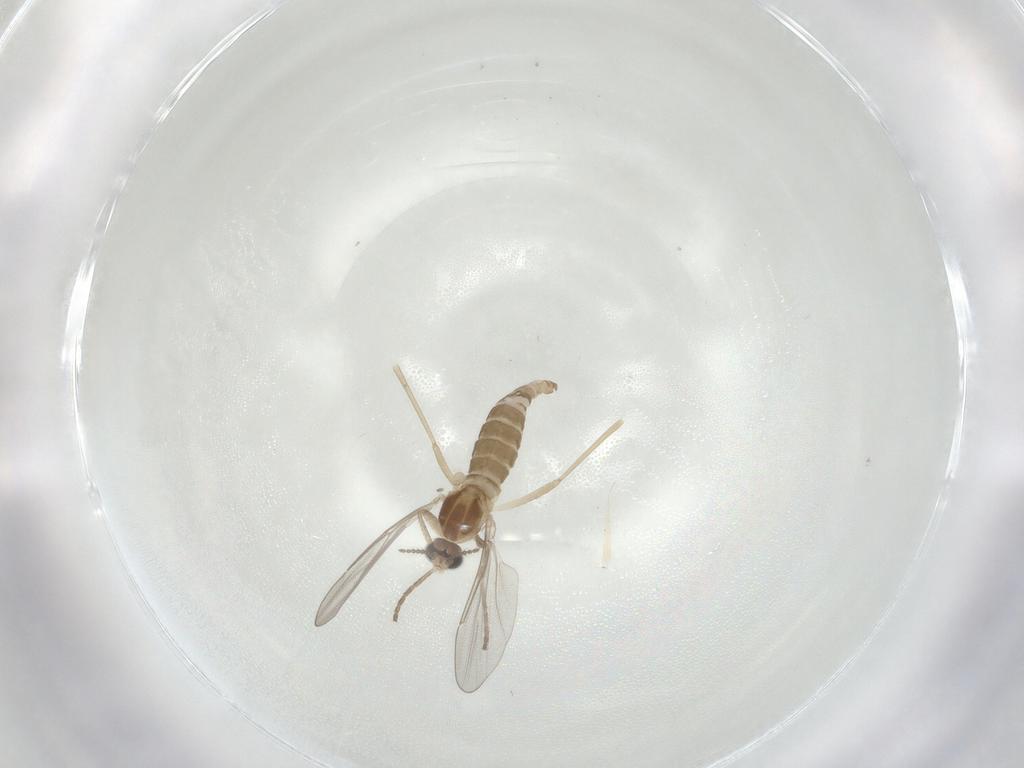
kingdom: Animalia
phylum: Arthropoda
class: Insecta
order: Diptera
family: Cecidomyiidae
